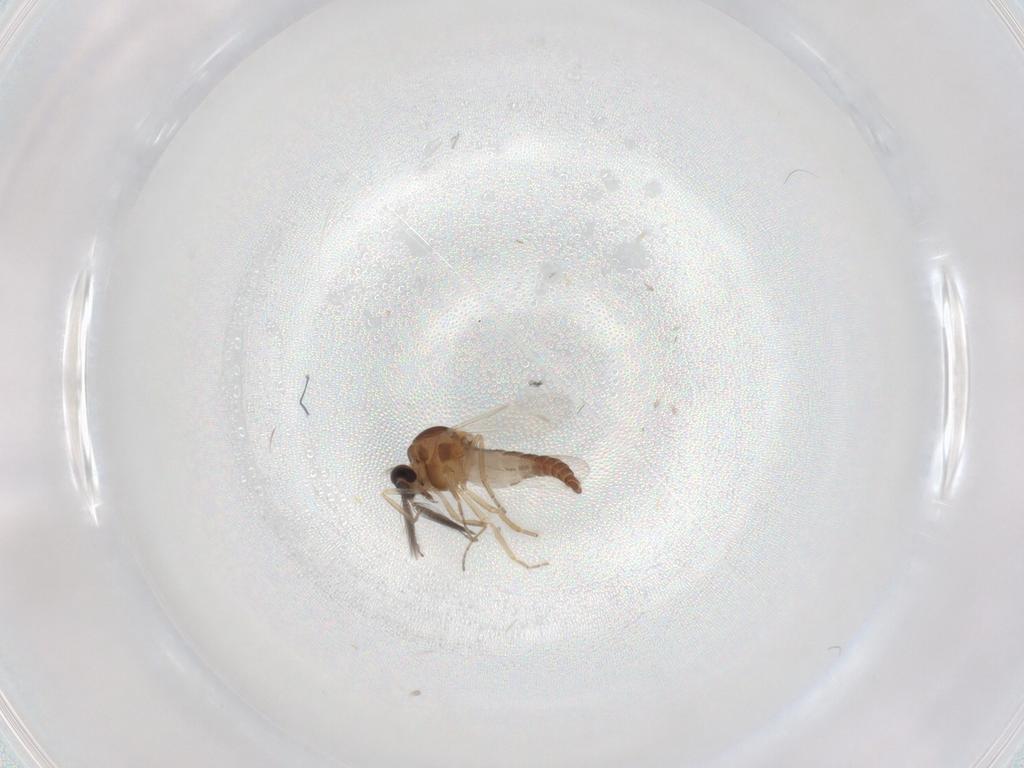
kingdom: Animalia
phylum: Arthropoda
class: Insecta
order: Diptera
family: Ceratopogonidae
